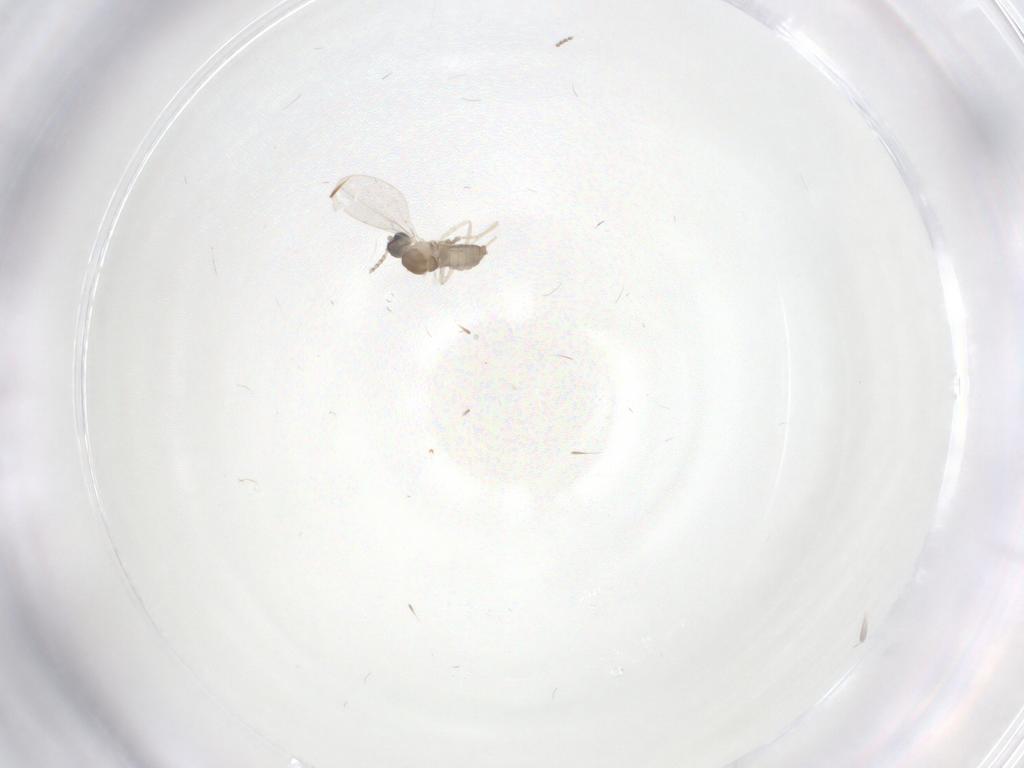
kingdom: Animalia
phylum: Arthropoda
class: Insecta
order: Diptera
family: Cecidomyiidae
